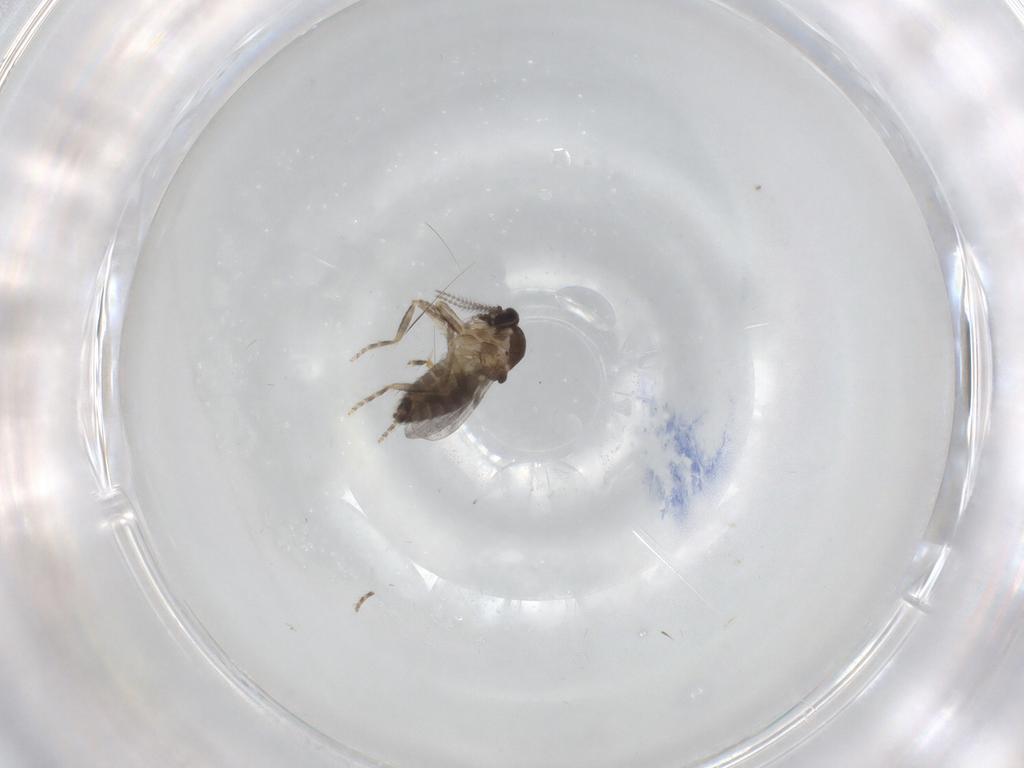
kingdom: Animalia
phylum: Arthropoda
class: Insecta
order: Diptera
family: Ceratopogonidae
